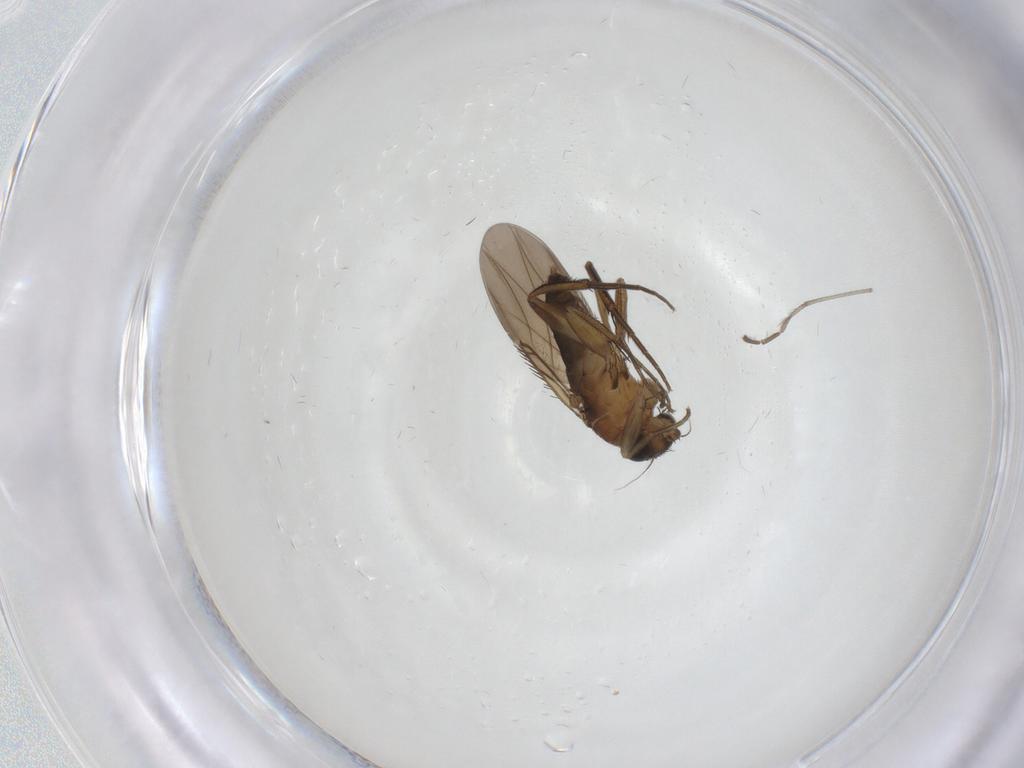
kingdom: Animalia
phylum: Arthropoda
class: Insecta
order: Diptera
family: Phoridae
